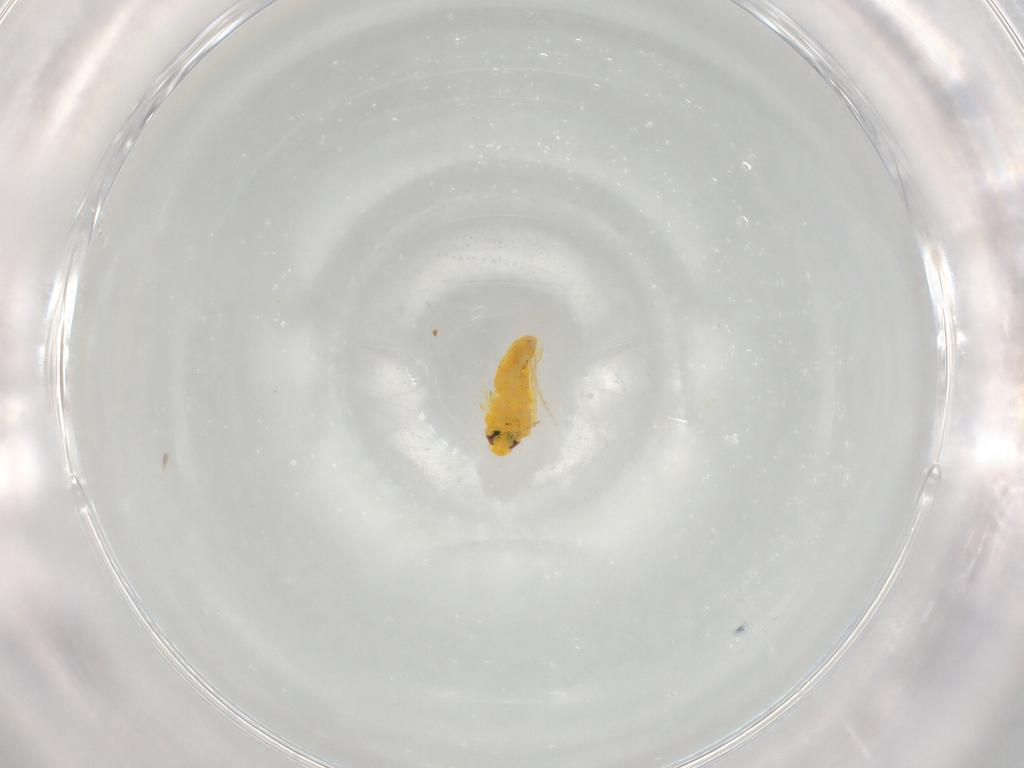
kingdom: Animalia
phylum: Arthropoda
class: Insecta
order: Hemiptera
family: Aleyrodidae
